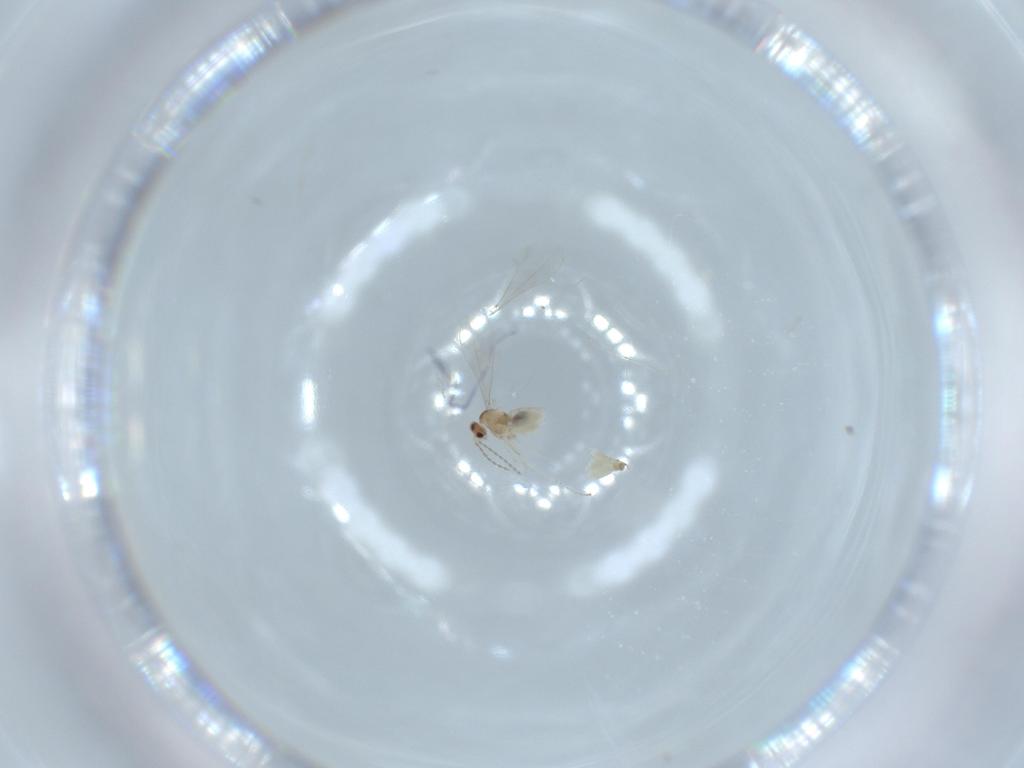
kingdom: Animalia
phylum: Arthropoda
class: Insecta
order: Diptera
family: Cecidomyiidae
